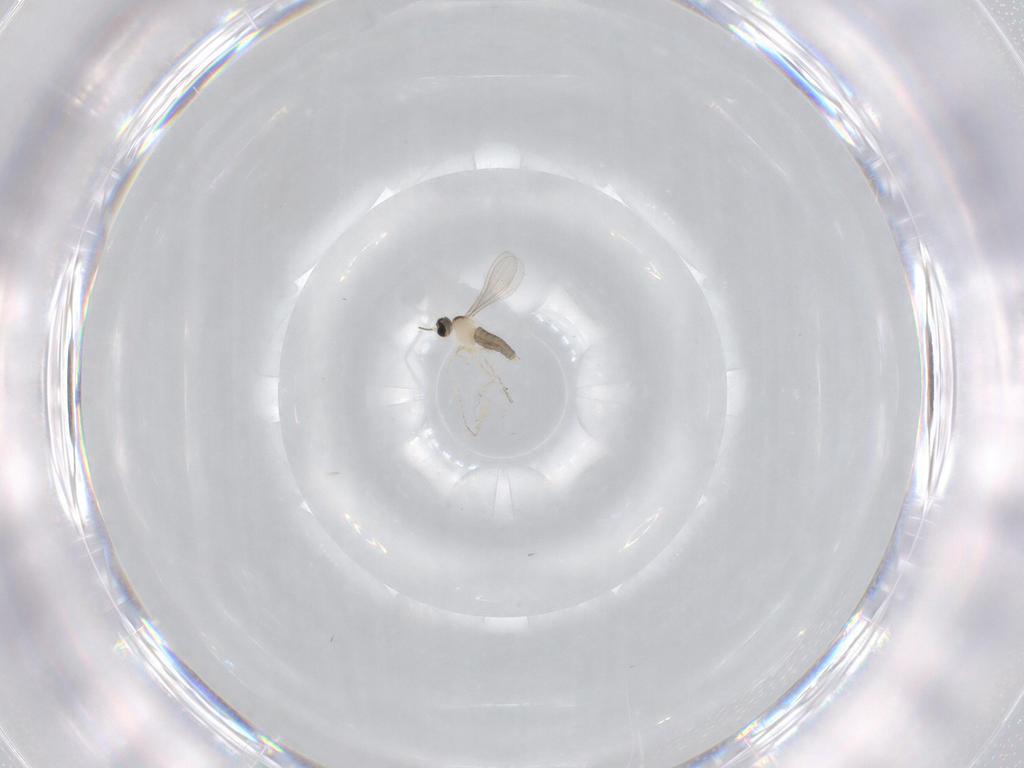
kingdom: Animalia
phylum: Arthropoda
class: Insecta
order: Diptera
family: Cecidomyiidae
